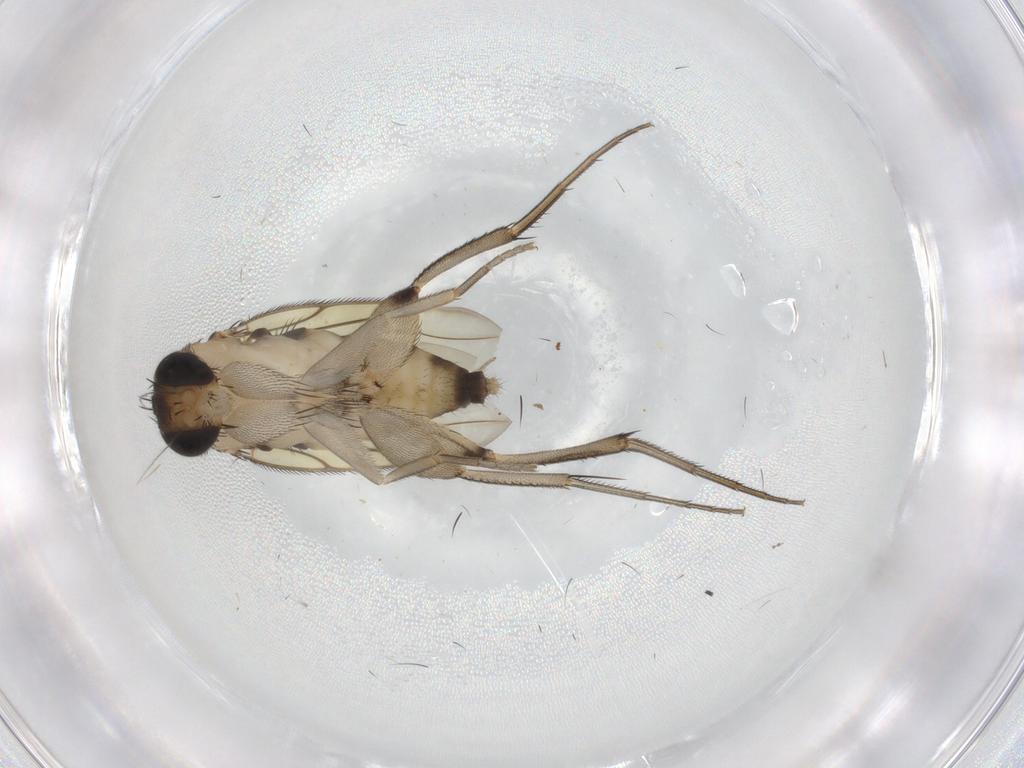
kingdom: Animalia
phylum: Arthropoda
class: Insecta
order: Diptera
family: Phoridae
